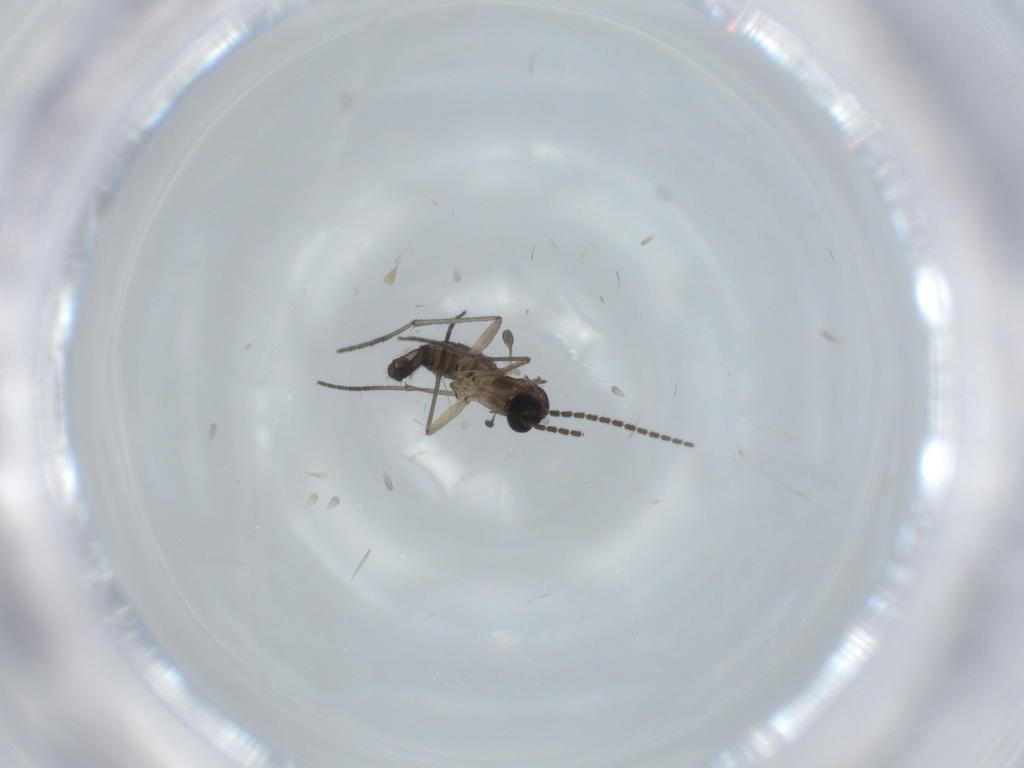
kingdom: Animalia
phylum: Arthropoda
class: Insecta
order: Diptera
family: Sciaridae
